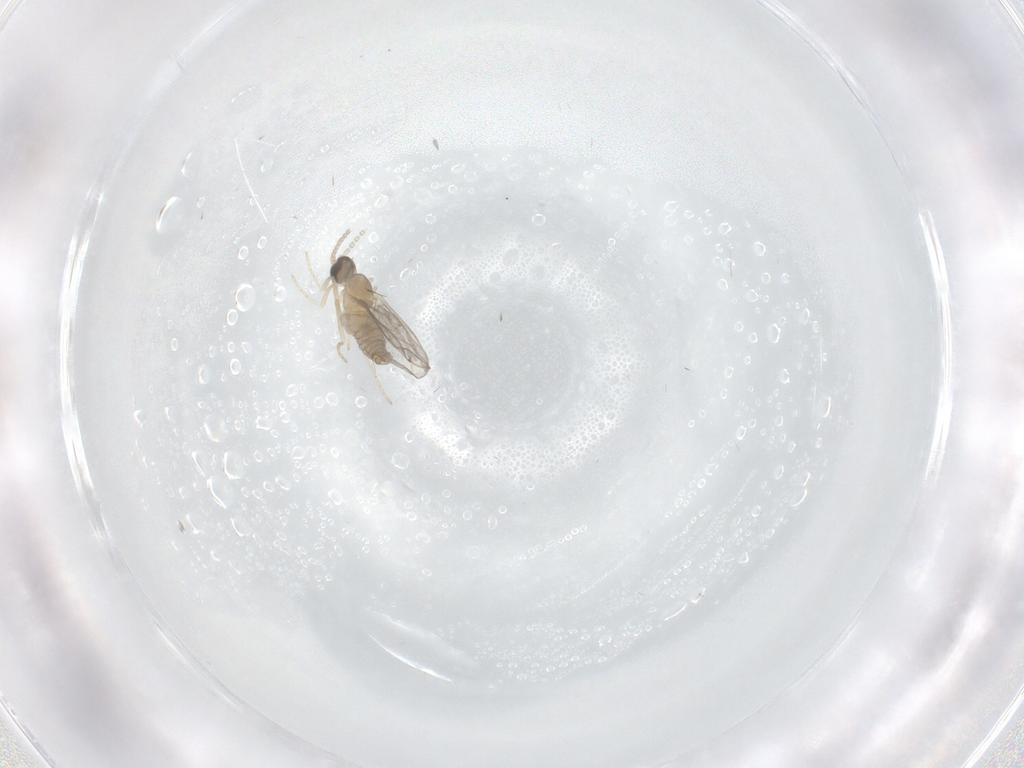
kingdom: Animalia
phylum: Arthropoda
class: Insecta
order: Diptera
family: Cecidomyiidae
